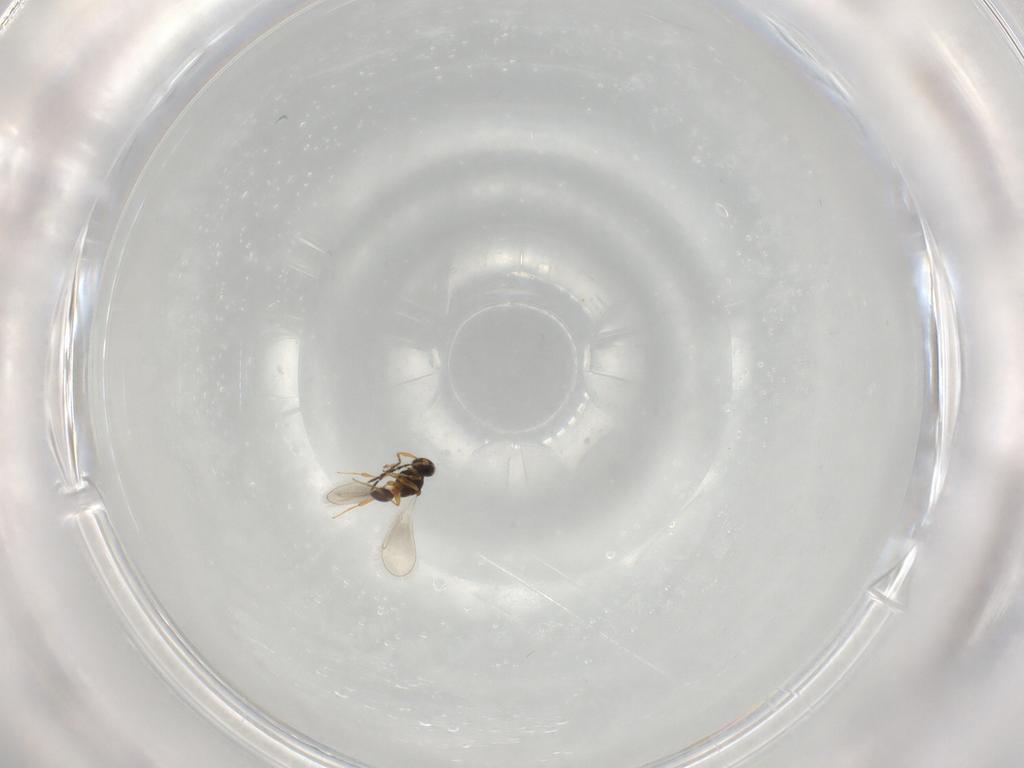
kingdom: Animalia
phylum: Arthropoda
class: Insecta
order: Hymenoptera
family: Platygastridae
